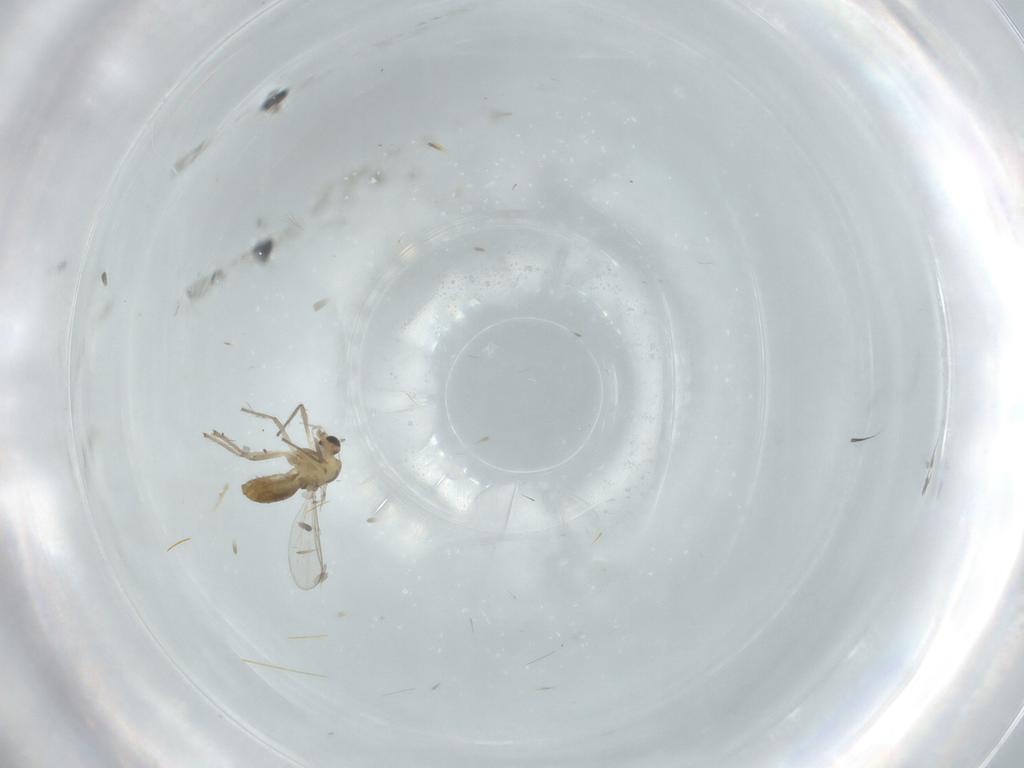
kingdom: Animalia
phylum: Arthropoda
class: Insecta
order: Diptera
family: Chironomidae
